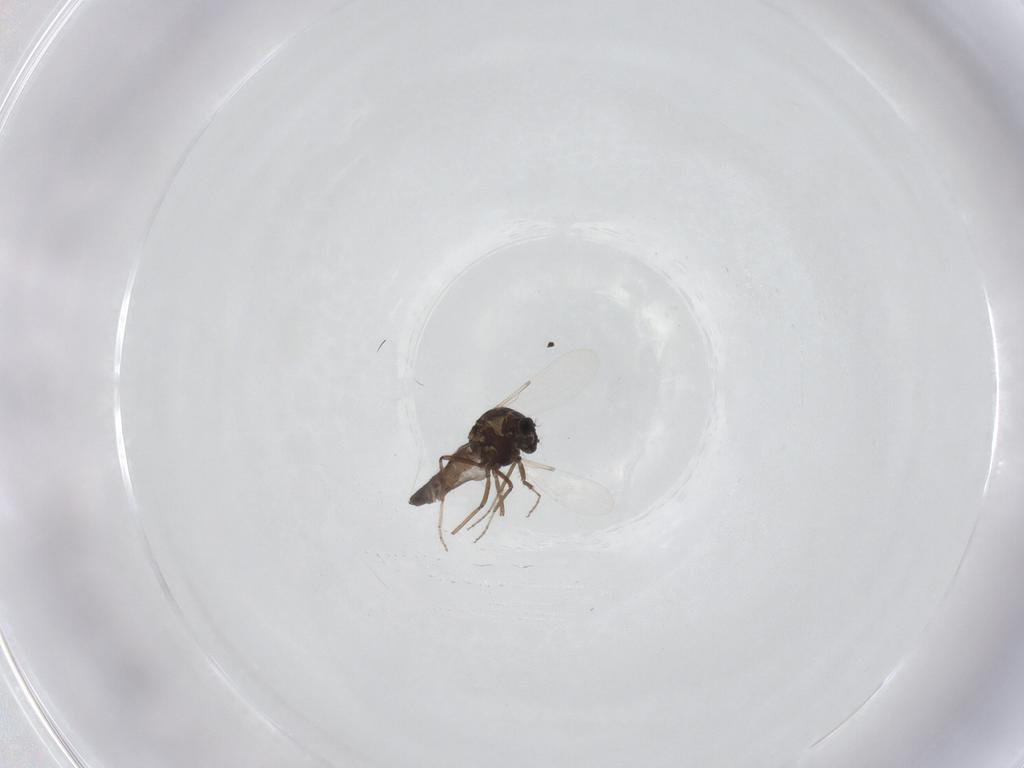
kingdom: Animalia
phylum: Arthropoda
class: Insecta
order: Diptera
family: Ceratopogonidae
